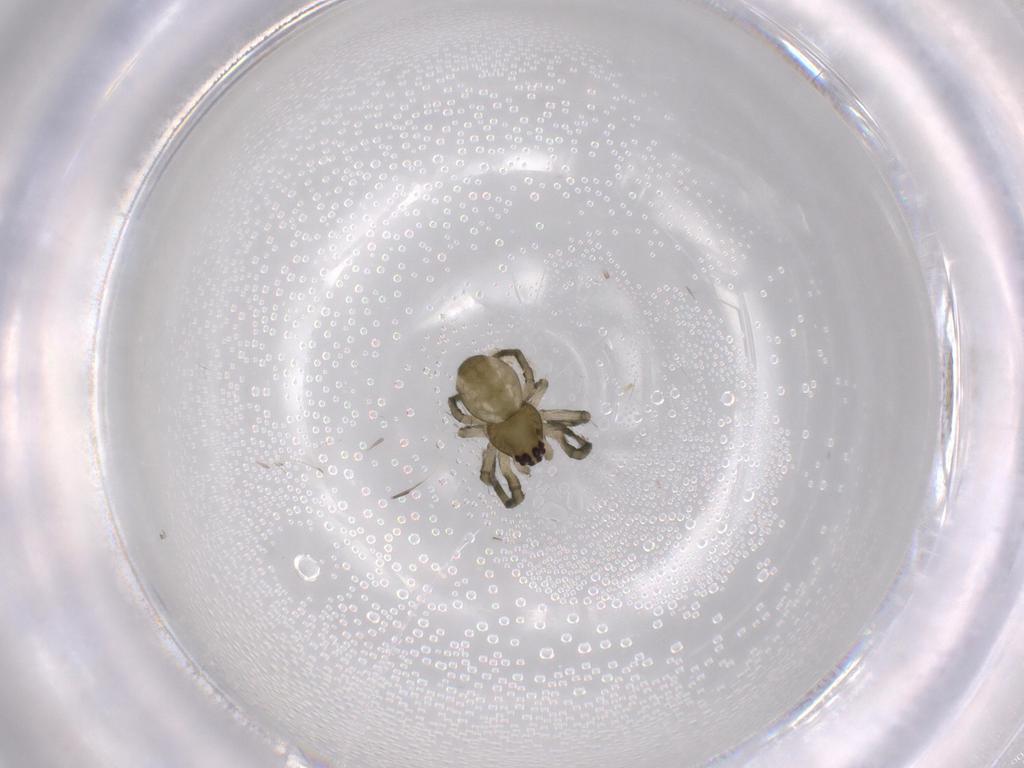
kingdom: Animalia
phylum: Arthropoda
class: Arachnida
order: Araneae
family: Tetragnathidae
